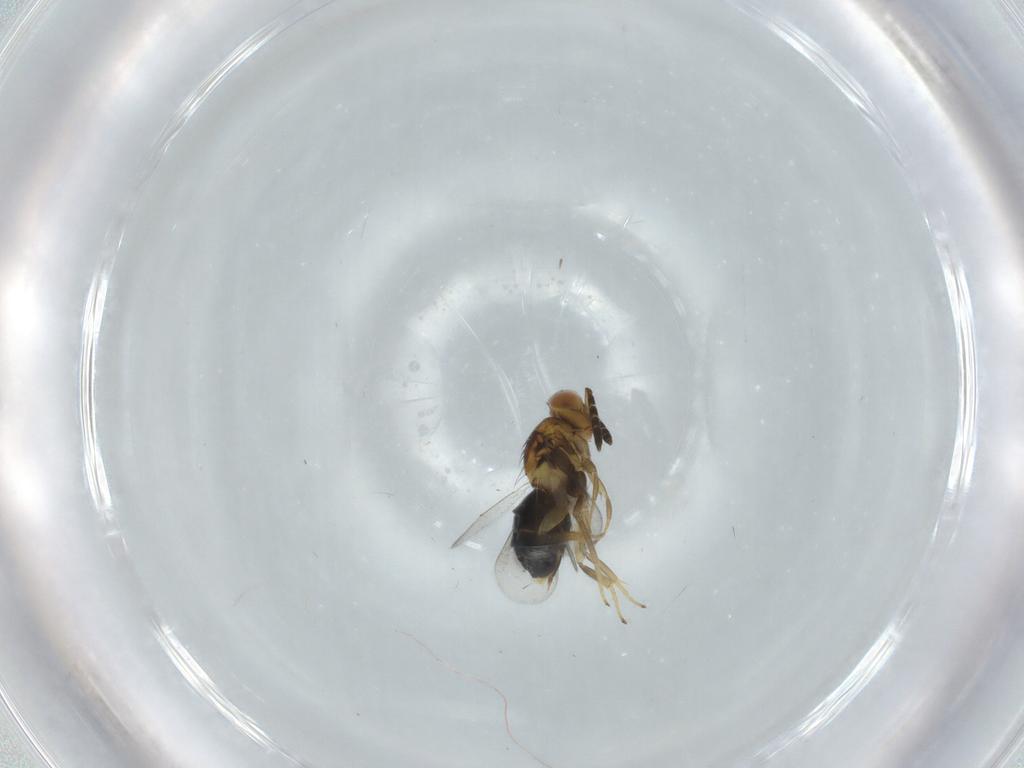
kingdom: Animalia
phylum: Arthropoda
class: Insecta
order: Hymenoptera
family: Aphelinidae
